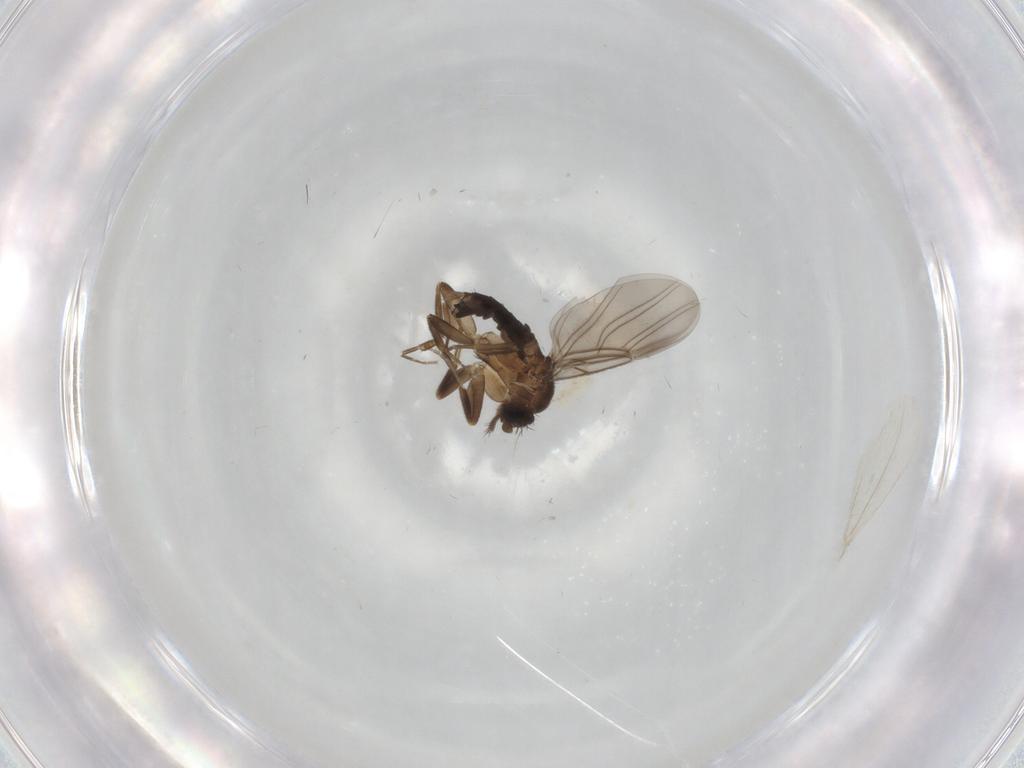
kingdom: Animalia
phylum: Arthropoda
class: Insecta
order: Diptera
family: Cecidomyiidae
